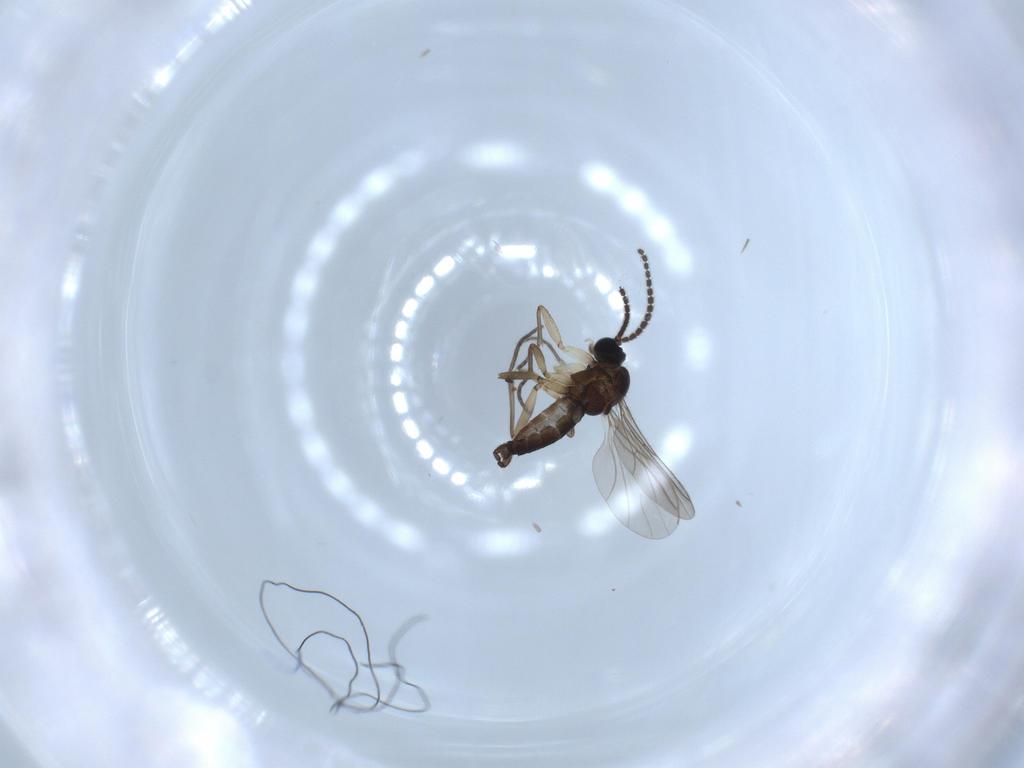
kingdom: Animalia
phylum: Arthropoda
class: Insecta
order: Diptera
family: Sciaridae
